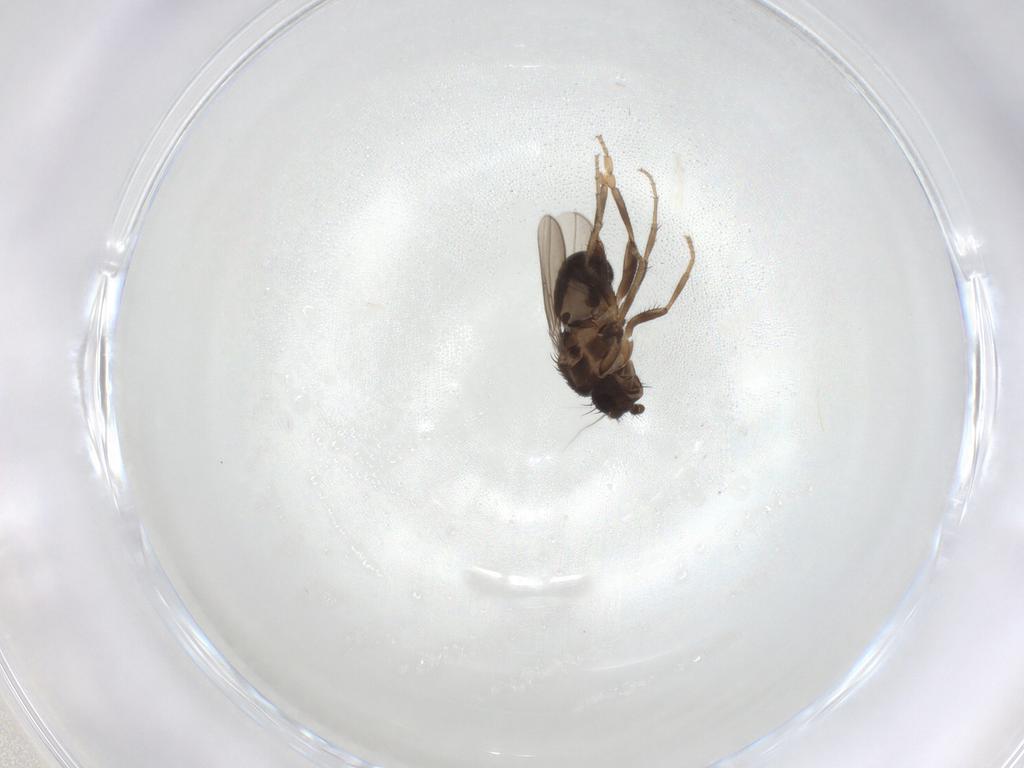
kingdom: Animalia
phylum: Arthropoda
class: Insecta
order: Diptera
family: Sphaeroceridae
